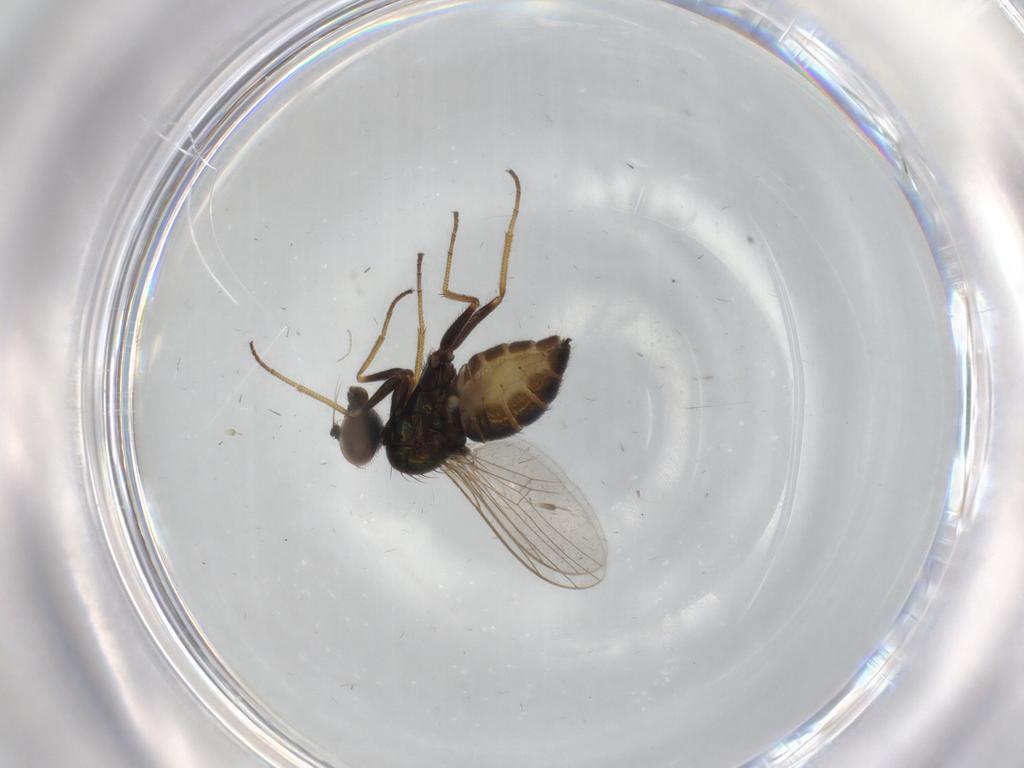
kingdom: Animalia
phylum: Arthropoda
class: Insecta
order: Diptera
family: Dolichopodidae
